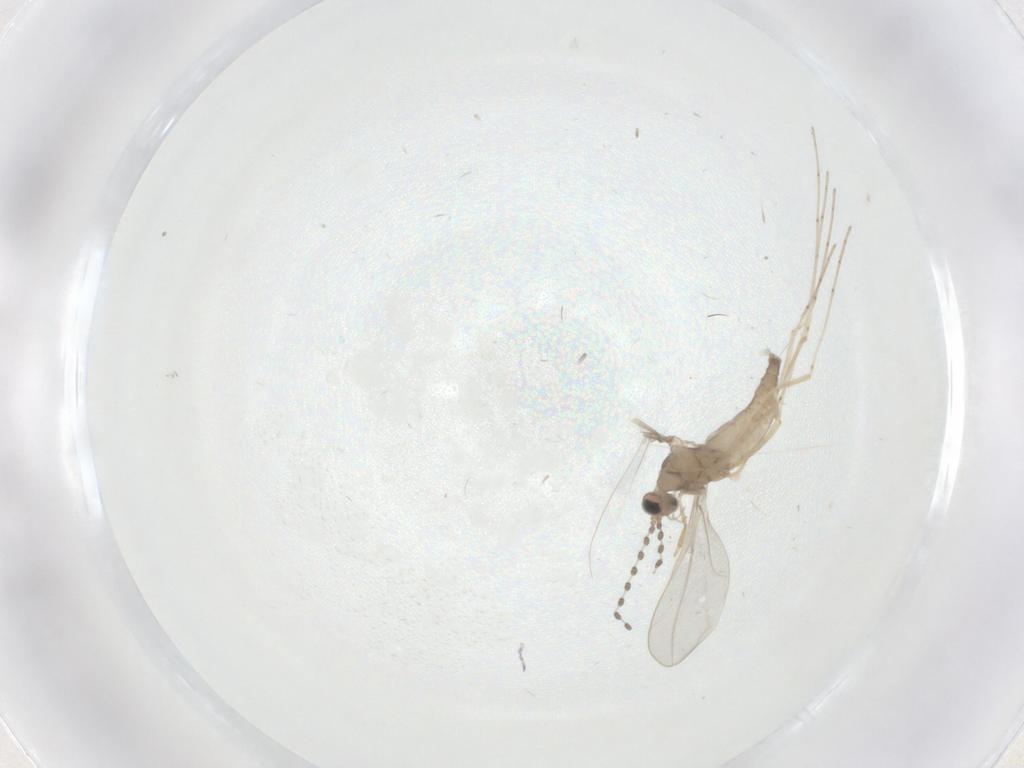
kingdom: Animalia
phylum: Arthropoda
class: Insecta
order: Diptera
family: Cecidomyiidae
